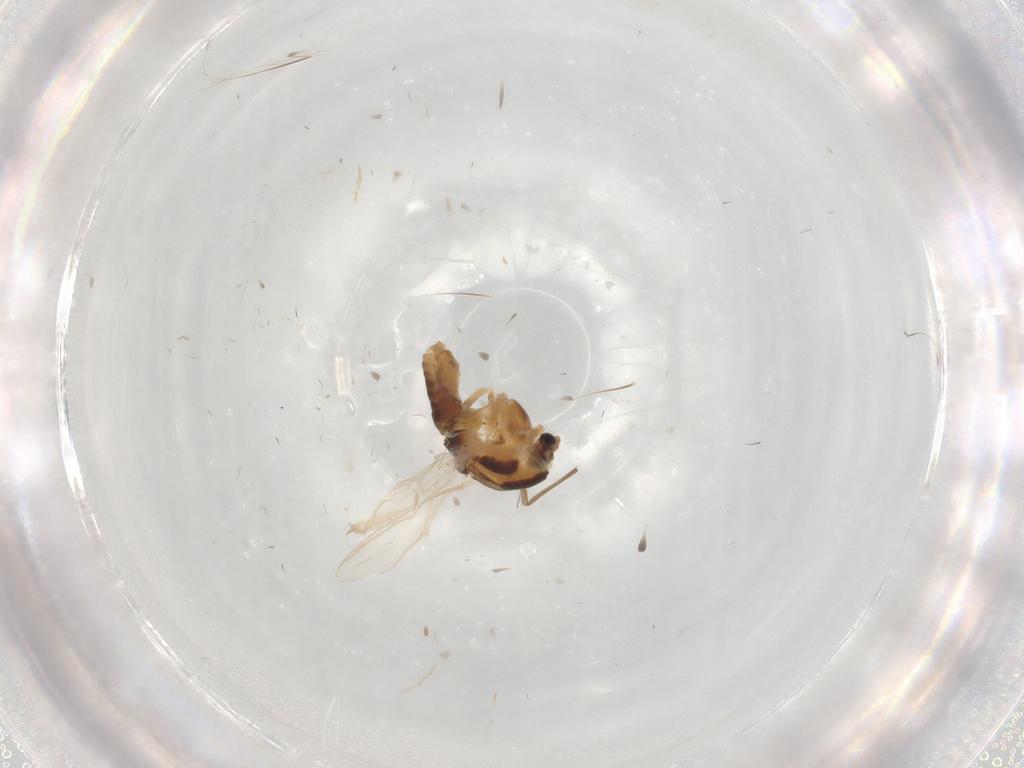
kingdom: Animalia
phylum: Arthropoda
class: Insecta
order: Diptera
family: Chironomidae
